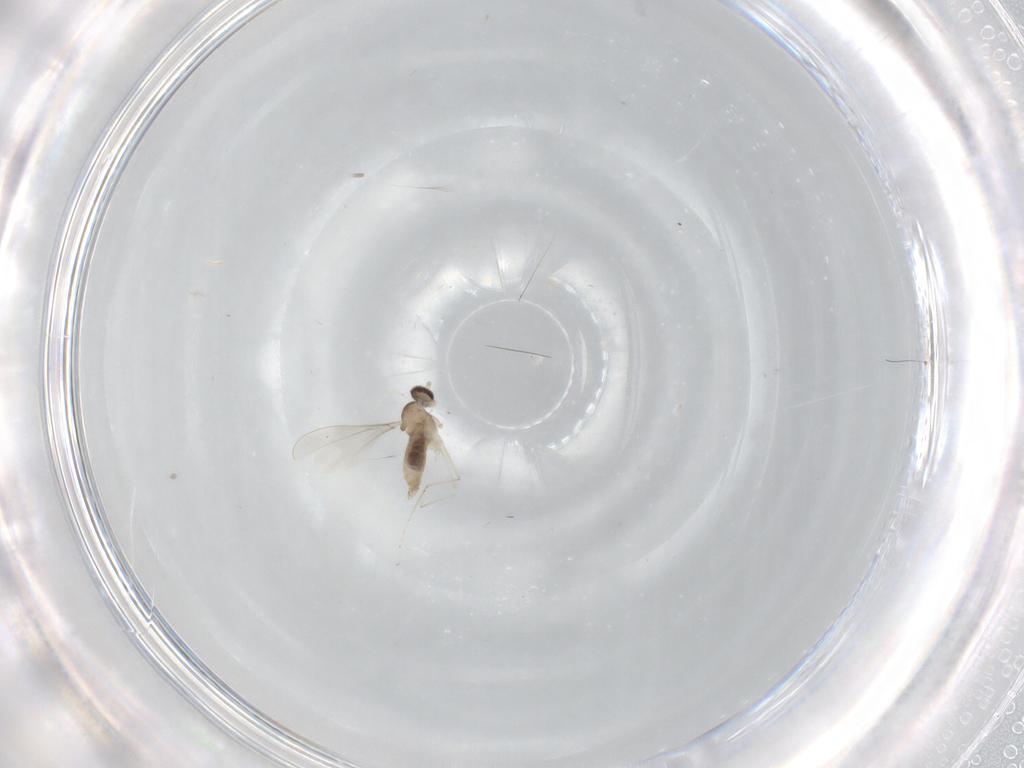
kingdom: Animalia
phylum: Arthropoda
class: Insecta
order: Diptera
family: Cecidomyiidae
